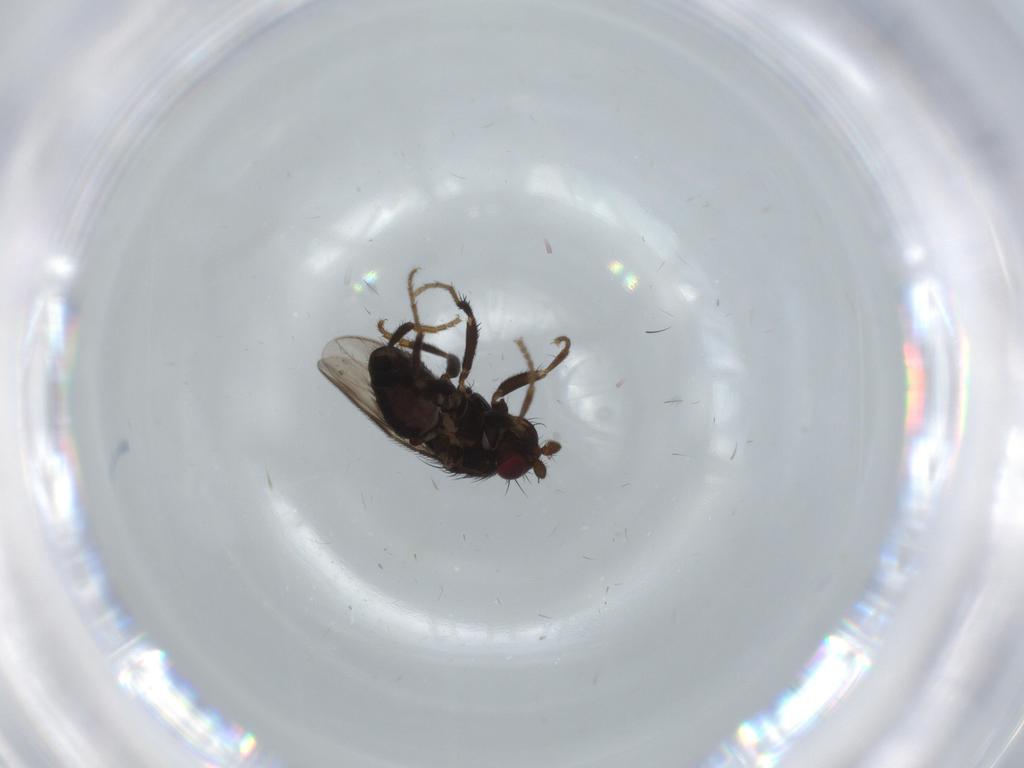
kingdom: Animalia
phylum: Arthropoda
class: Insecta
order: Diptera
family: Sphaeroceridae
